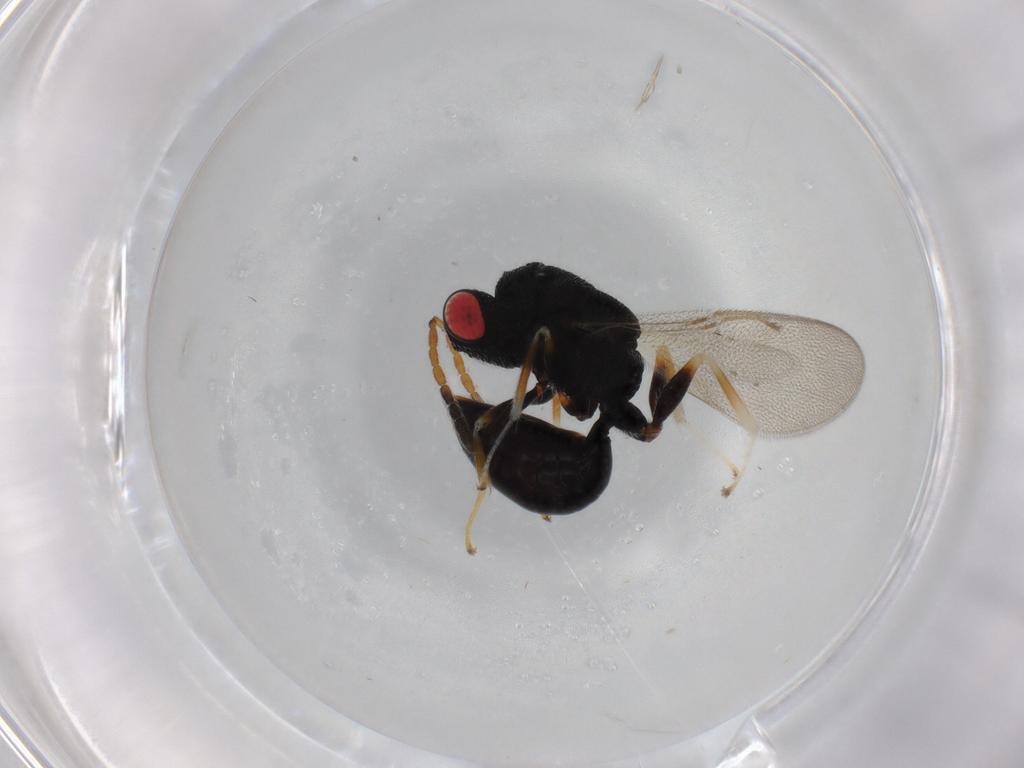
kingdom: Animalia
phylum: Arthropoda
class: Insecta
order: Hymenoptera
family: Eurytomidae
